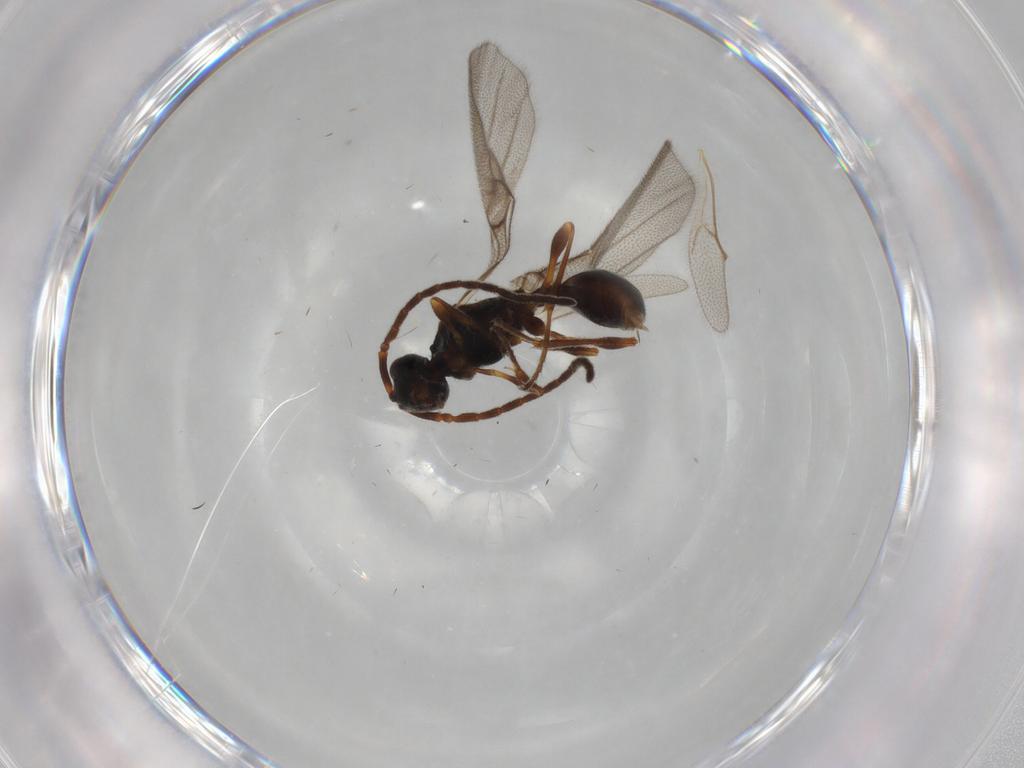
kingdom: Animalia
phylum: Arthropoda
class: Insecta
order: Hymenoptera
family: Diapriidae
